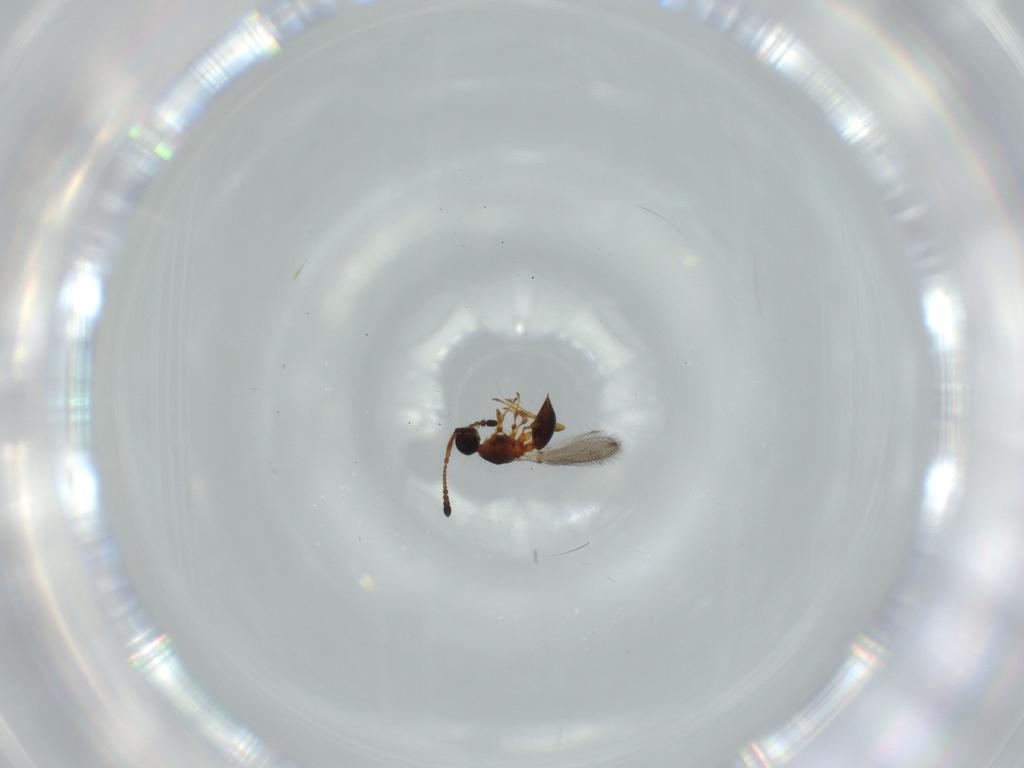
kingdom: Animalia
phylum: Arthropoda
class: Insecta
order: Hymenoptera
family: Diapriidae
